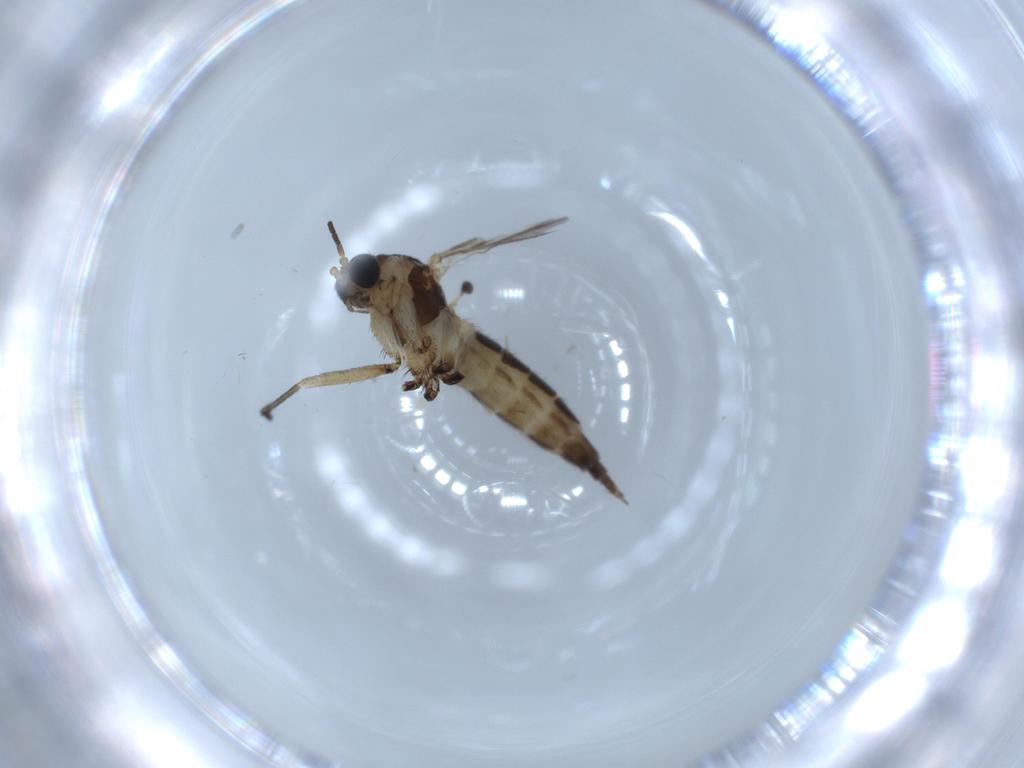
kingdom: Animalia
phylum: Arthropoda
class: Insecta
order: Diptera
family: Sciaridae
